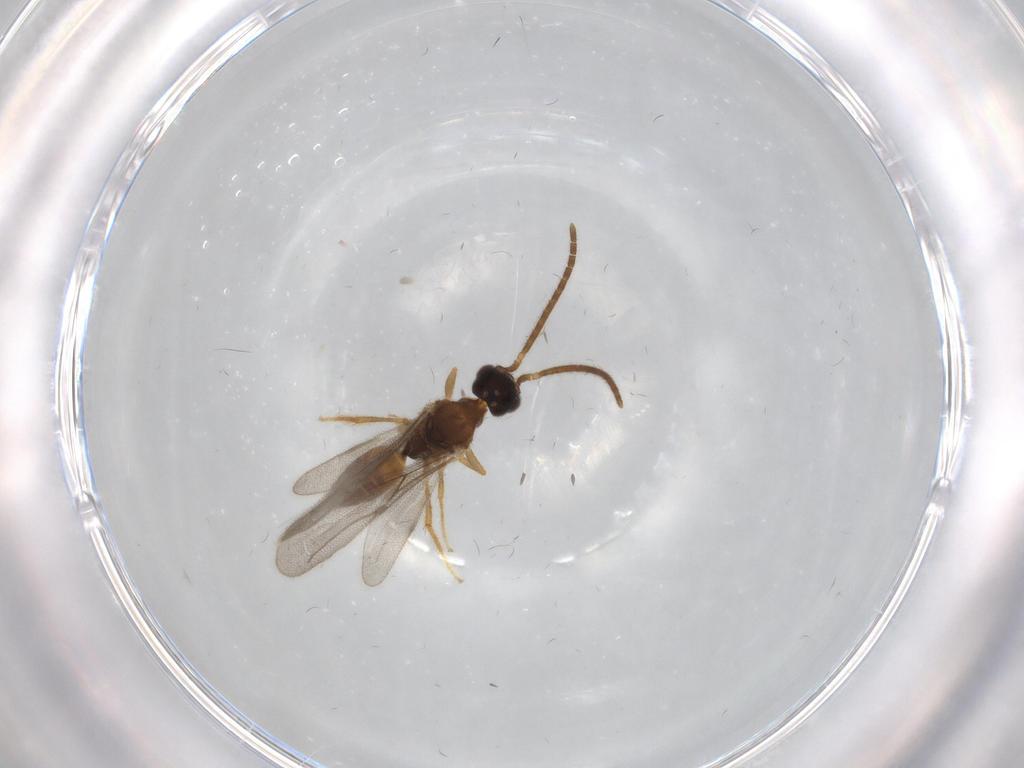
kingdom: Animalia
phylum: Arthropoda
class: Insecta
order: Hymenoptera
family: Bethylidae
